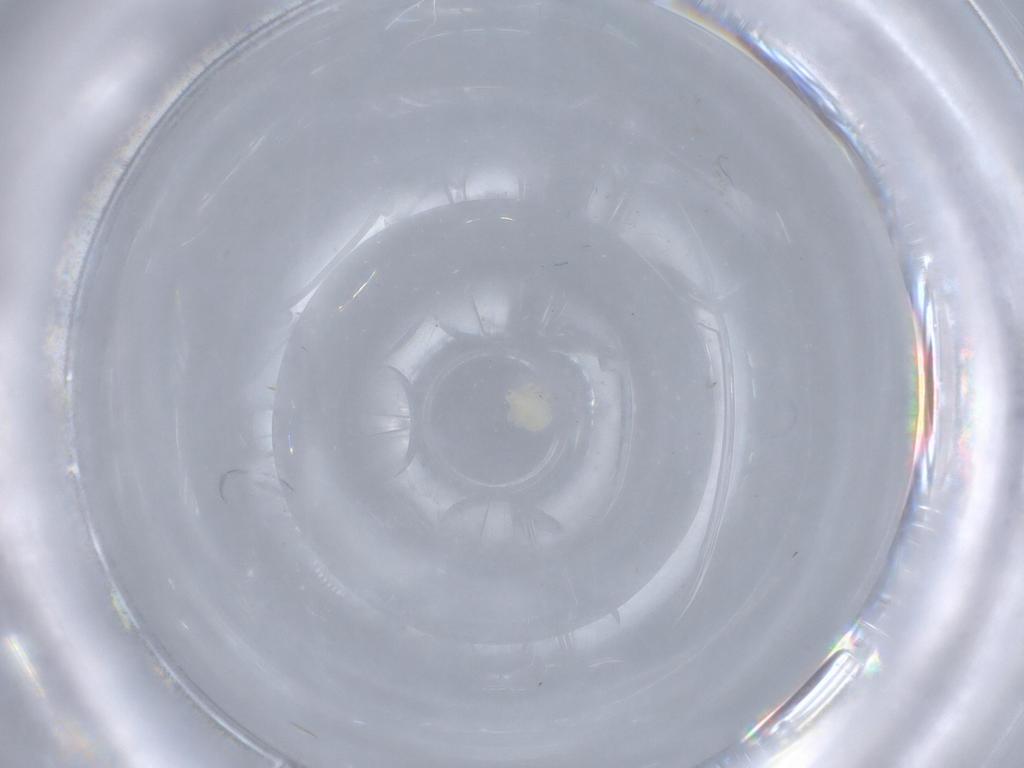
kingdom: Animalia
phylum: Arthropoda
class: Arachnida
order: Trombidiformes
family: Anystidae
